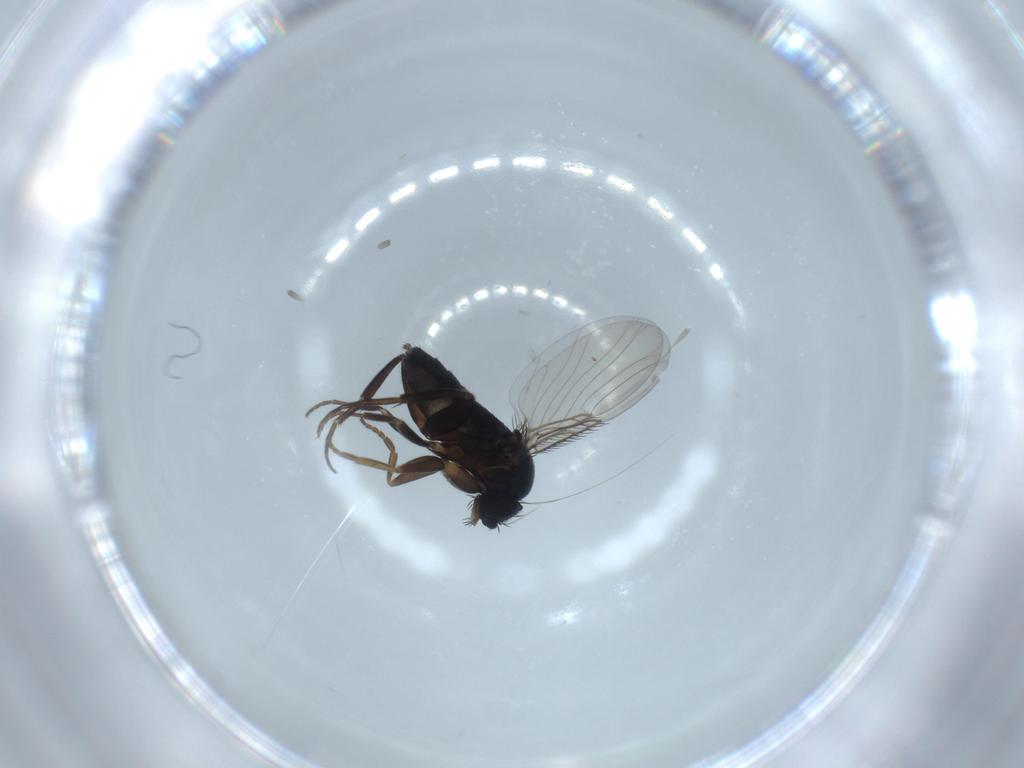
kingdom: Animalia
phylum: Arthropoda
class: Insecta
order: Diptera
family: Phoridae
